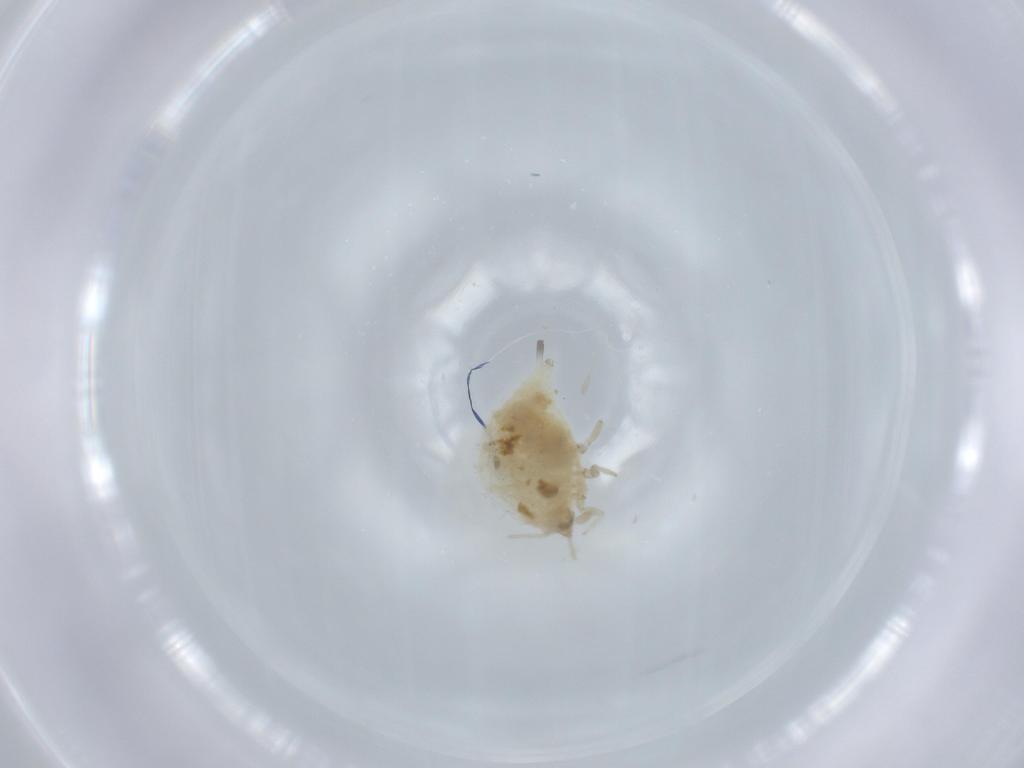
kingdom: Animalia
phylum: Arthropoda
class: Insecta
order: Neuroptera
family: Coniopterygidae
